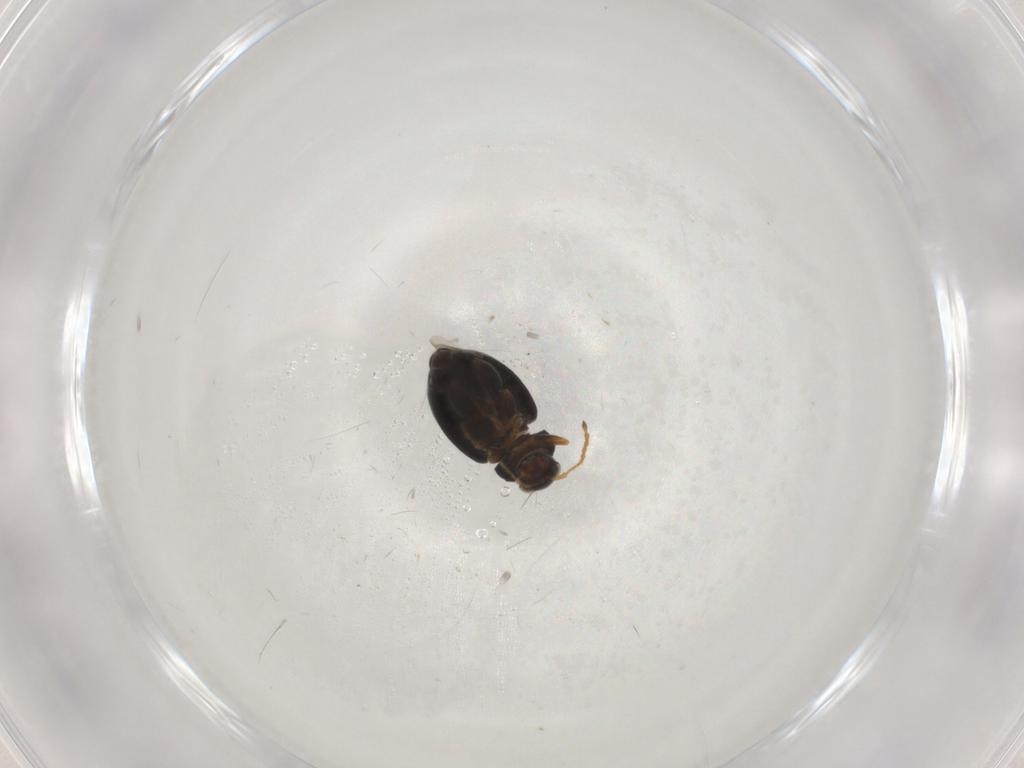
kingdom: Animalia
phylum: Arthropoda
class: Insecta
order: Coleoptera
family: Chrysomelidae
